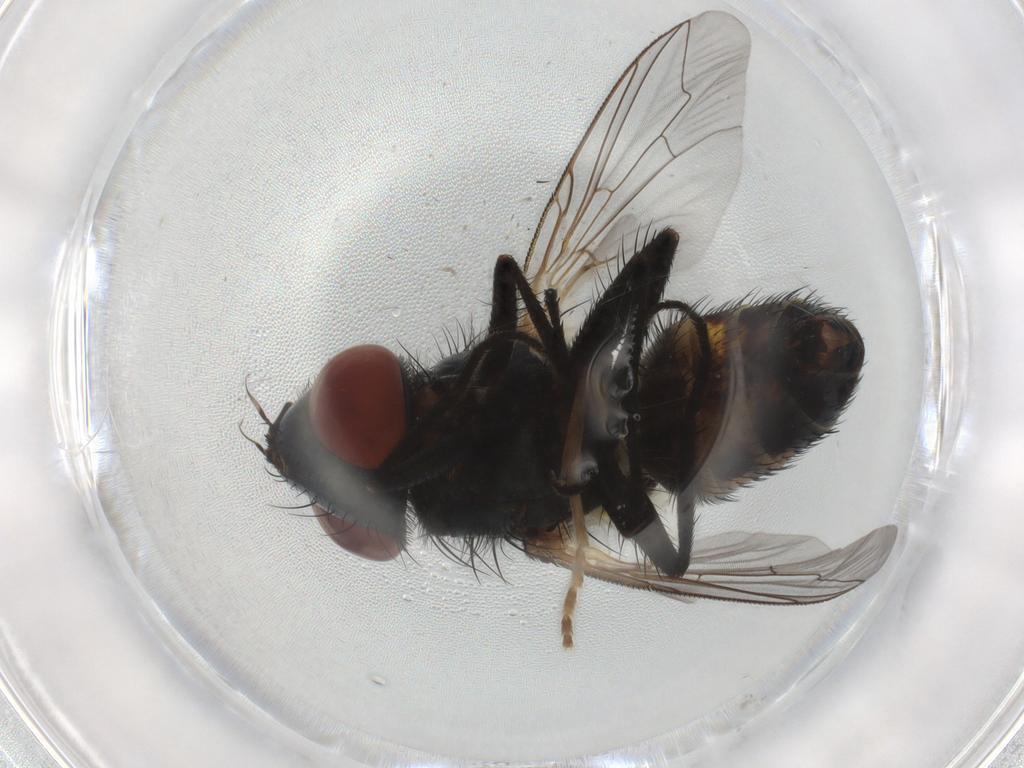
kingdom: Animalia
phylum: Arthropoda
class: Insecta
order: Diptera
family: Sarcophagidae
